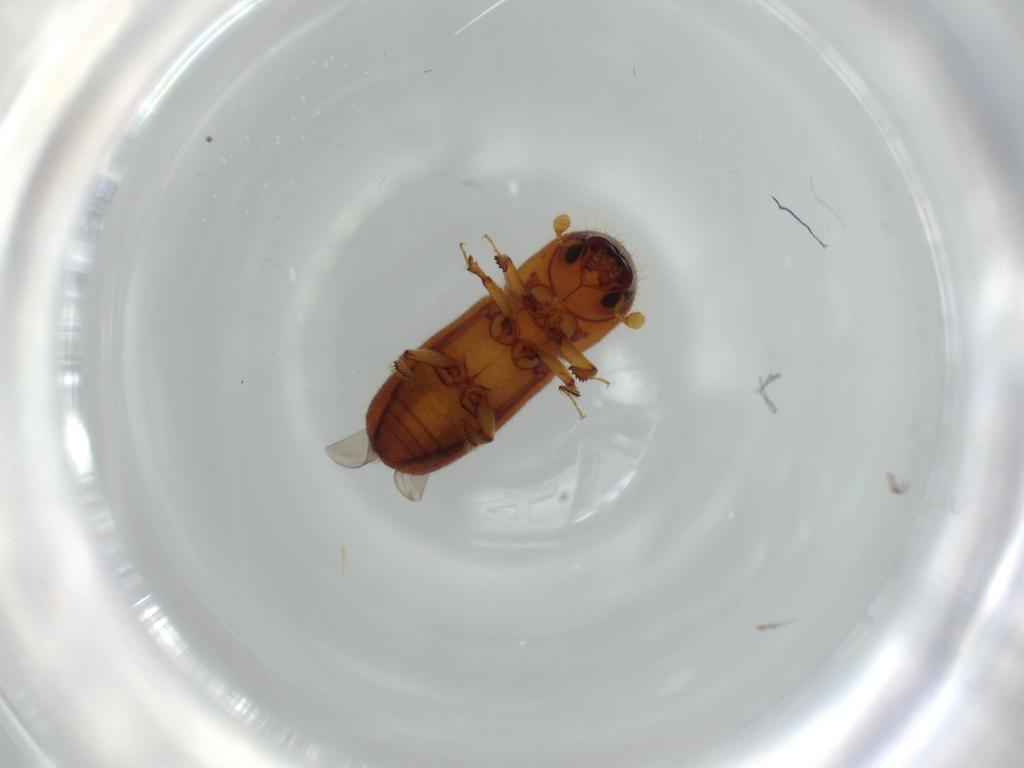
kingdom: Animalia
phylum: Arthropoda
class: Insecta
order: Coleoptera
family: Curculionidae
